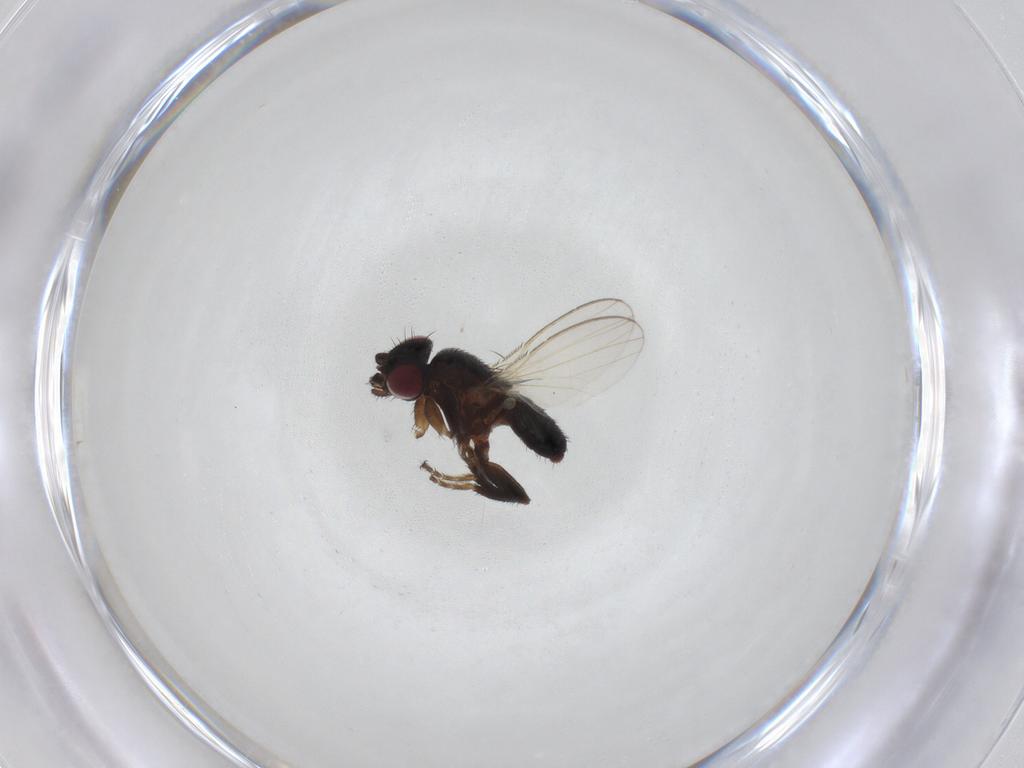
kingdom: Animalia
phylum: Arthropoda
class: Insecta
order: Diptera
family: Milichiidae
